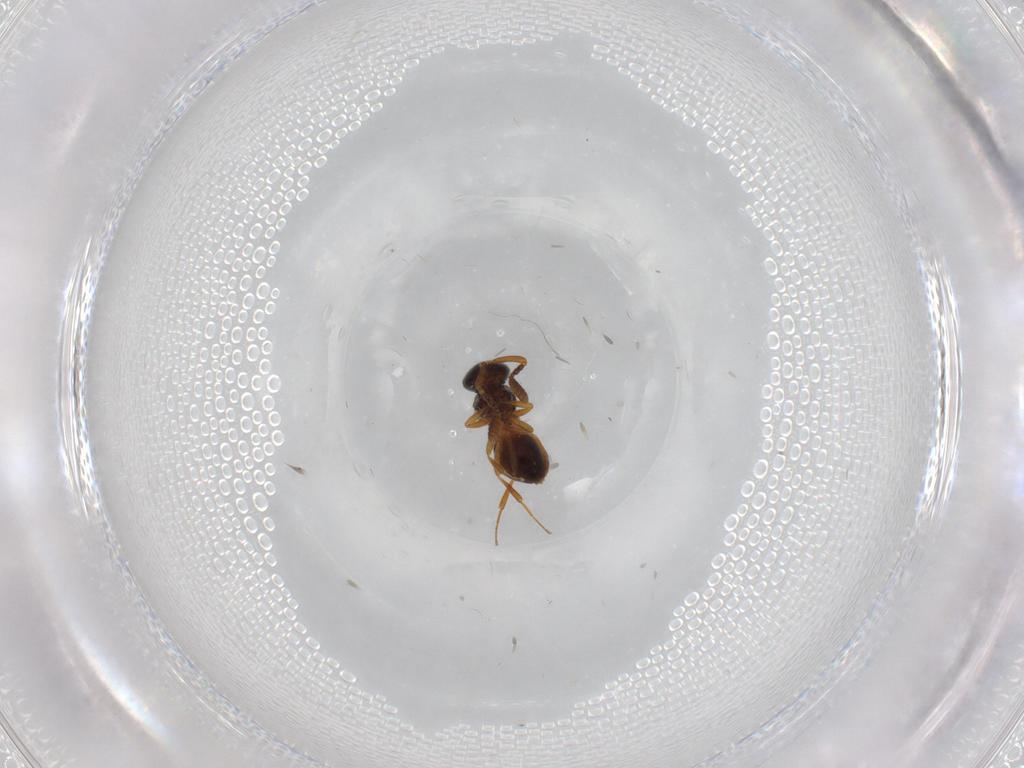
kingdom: Animalia
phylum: Arthropoda
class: Insecta
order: Hymenoptera
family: Scelionidae
